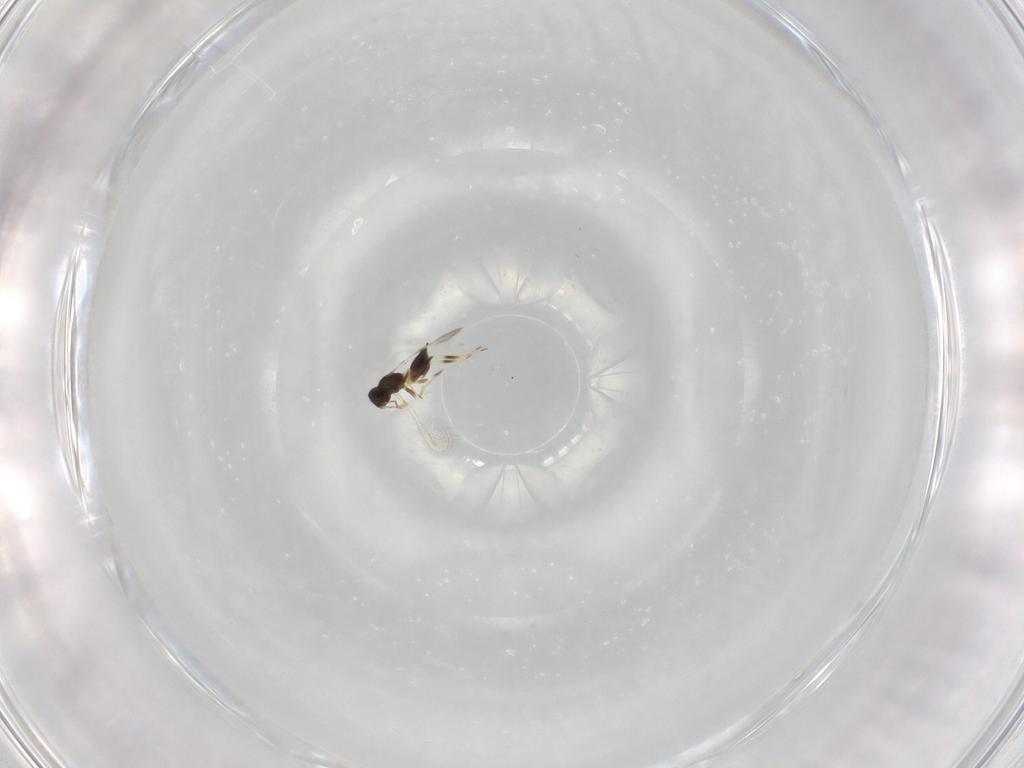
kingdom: Animalia
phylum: Arthropoda
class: Insecta
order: Hymenoptera
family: Mymaridae
